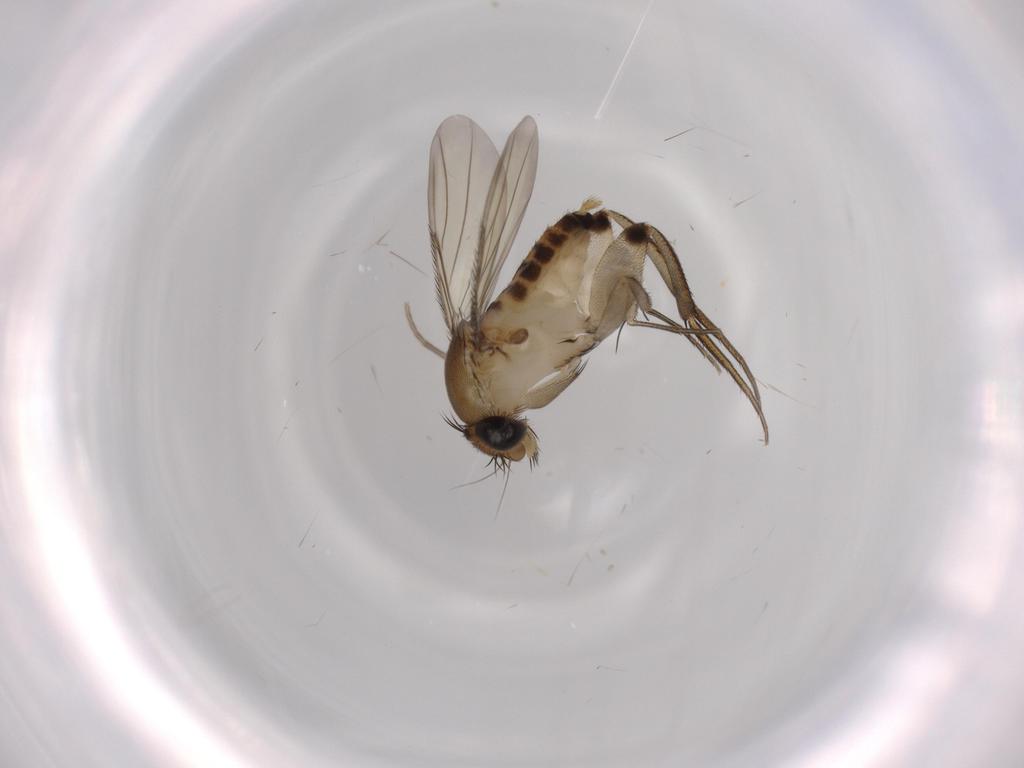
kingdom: Animalia
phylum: Arthropoda
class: Insecta
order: Diptera
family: Phoridae
